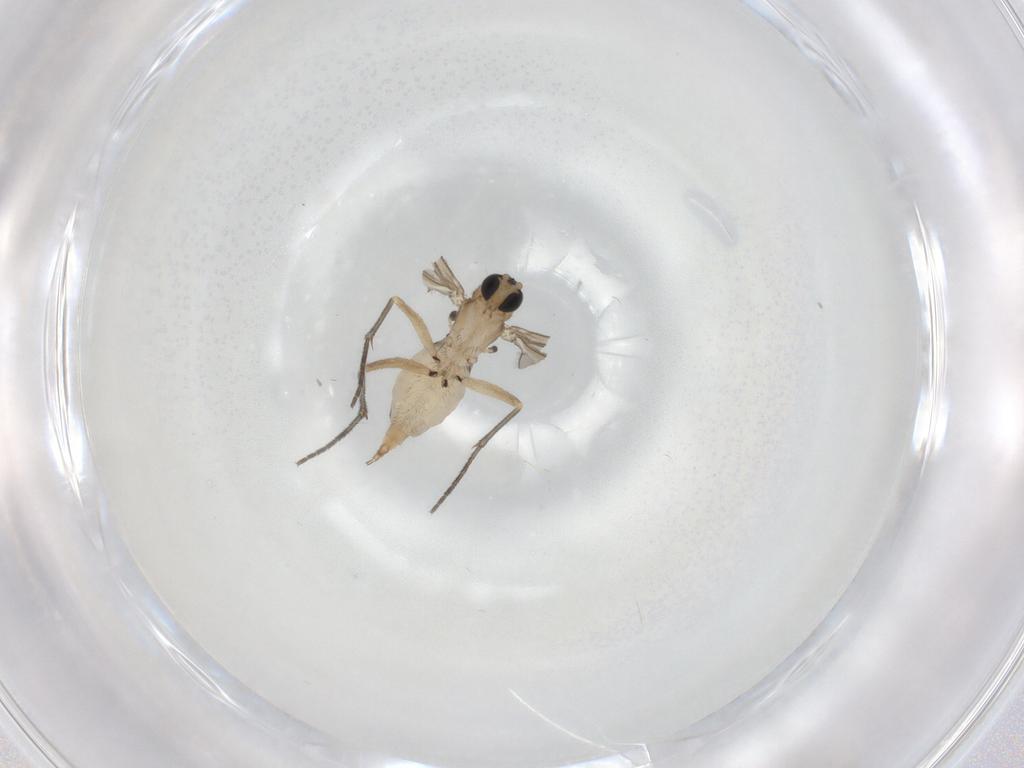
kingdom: Animalia
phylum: Arthropoda
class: Insecta
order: Diptera
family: Sciaridae
